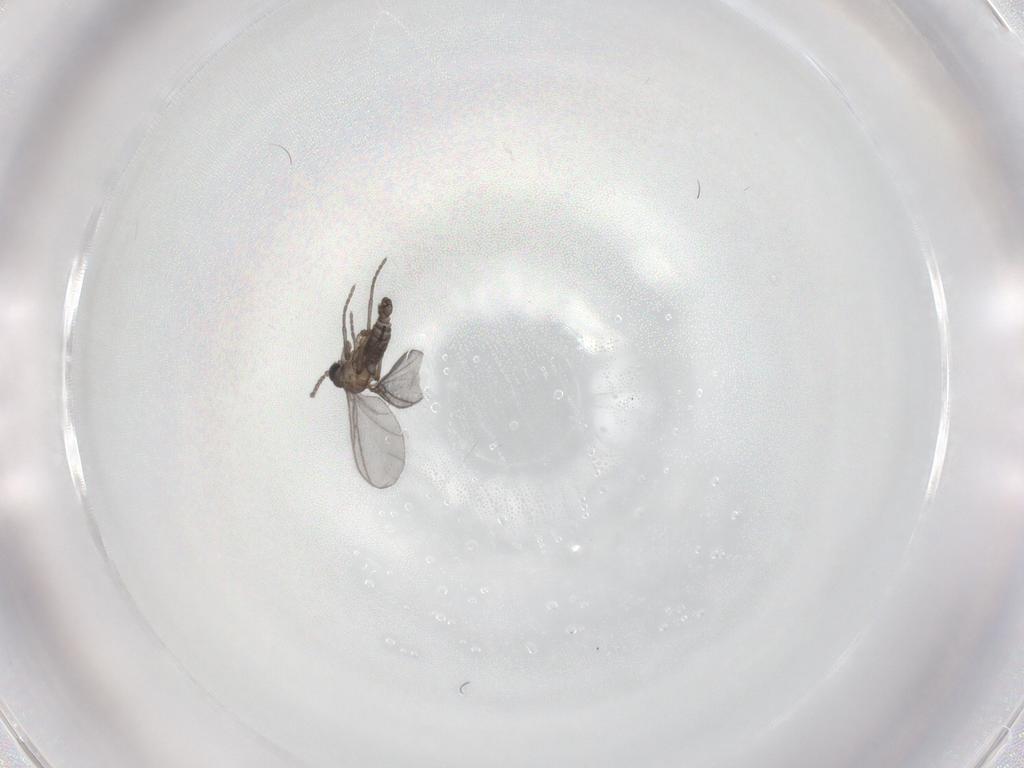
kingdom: Animalia
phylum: Arthropoda
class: Insecta
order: Diptera
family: Sciaridae
